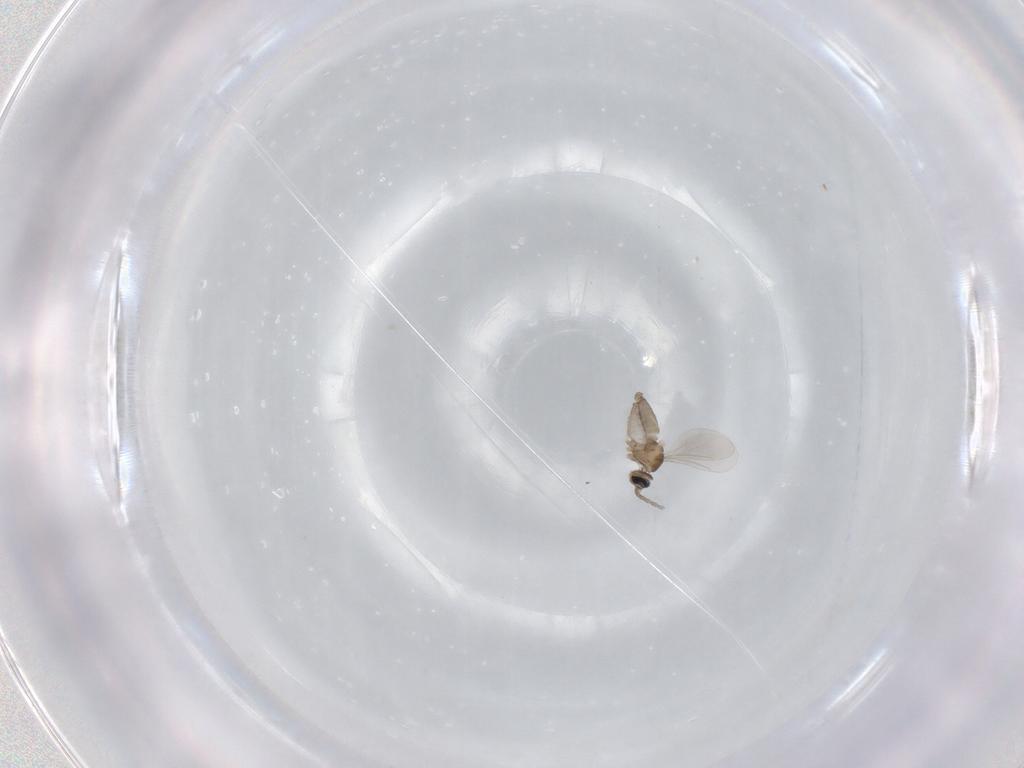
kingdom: Animalia
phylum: Arthropoda
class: Insecta
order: Diptera
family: Cecidomyiidae
